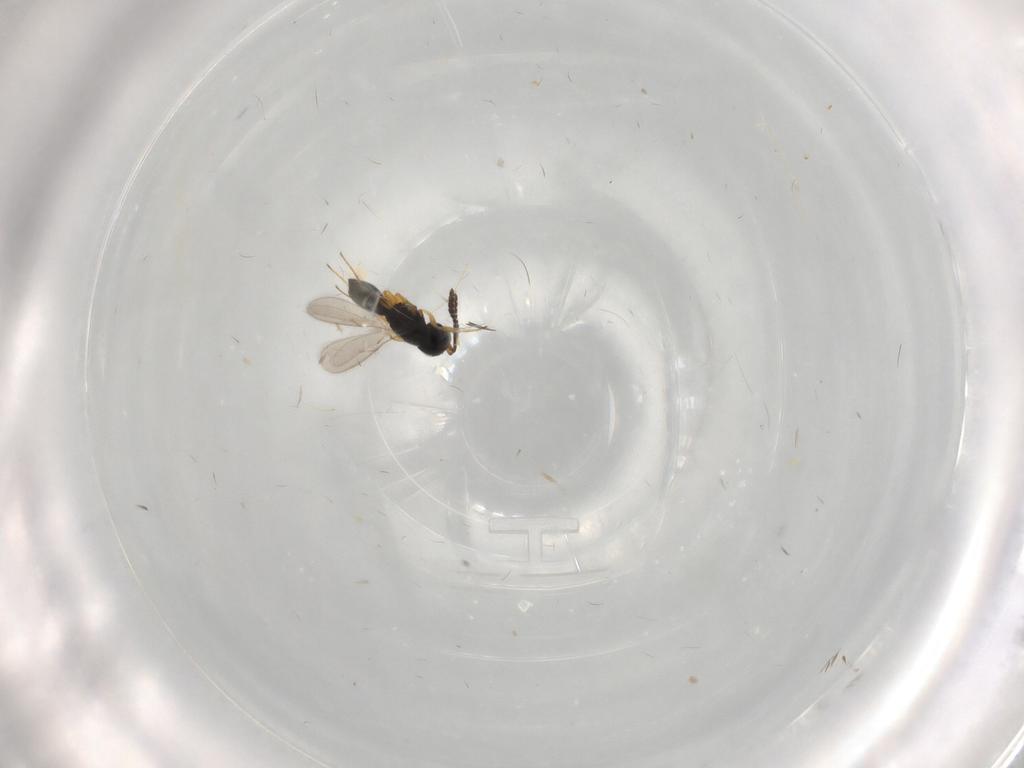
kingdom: Animalia
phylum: Arthropoda
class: Insecta
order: Hymenoptera
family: Scelionidae
